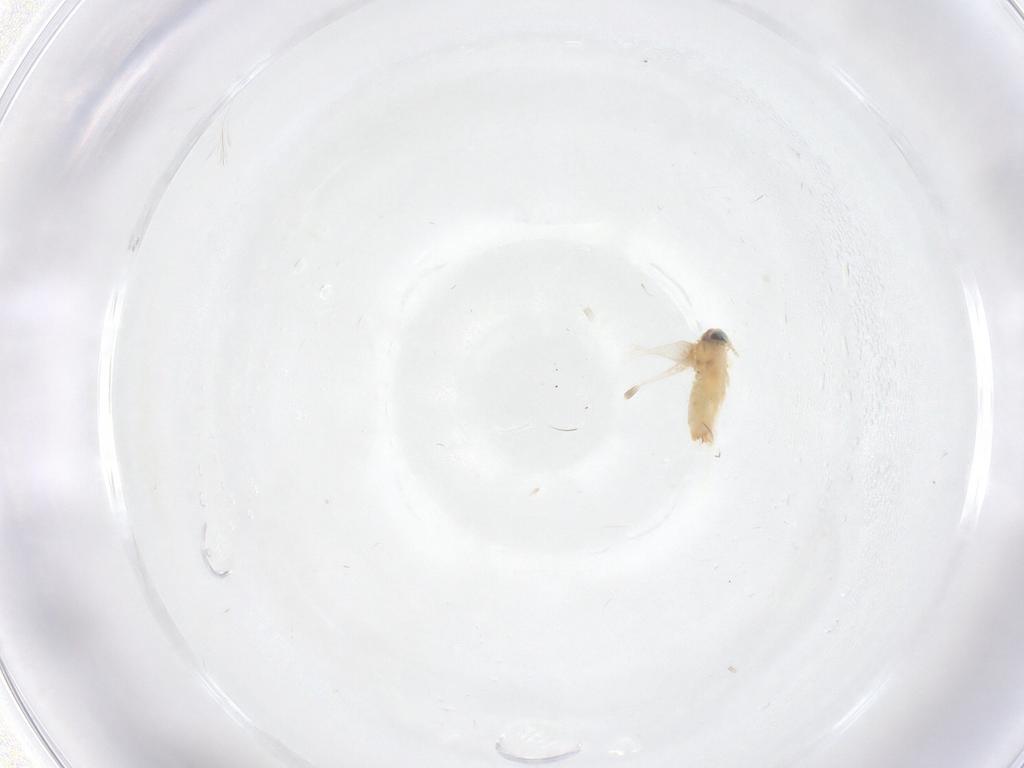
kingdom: Animalia
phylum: Arthropoda
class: Insecta
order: Lepidoptera
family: Crambidae
